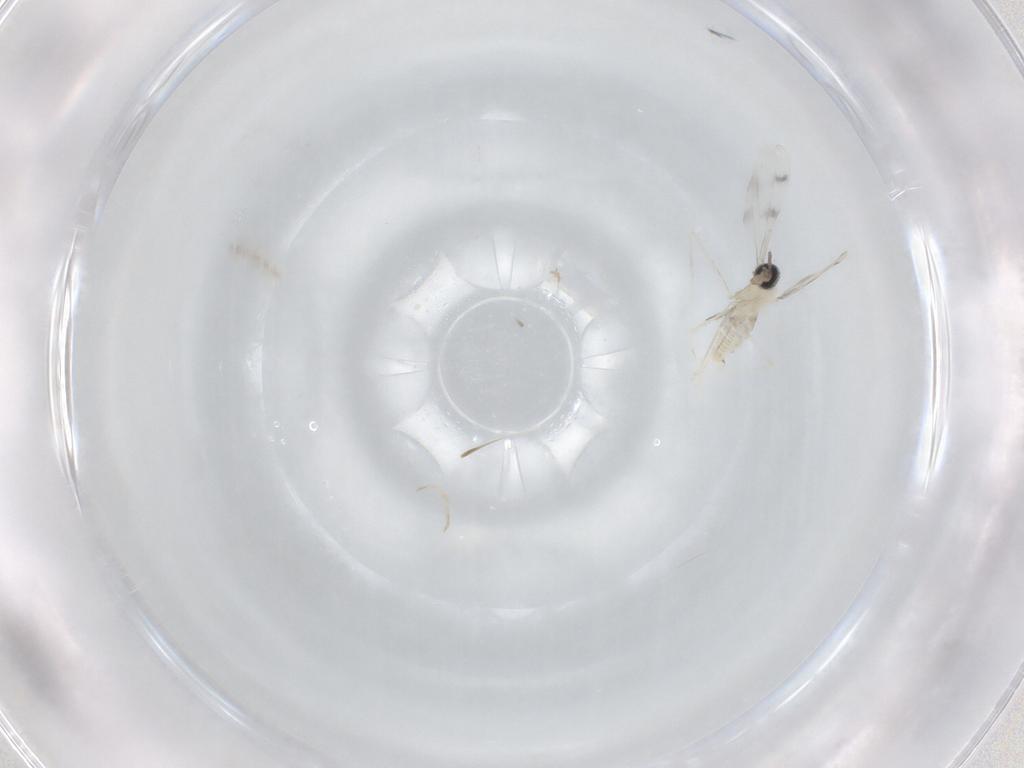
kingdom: Animalia
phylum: Arthropoda
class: Insecta
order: Diptera
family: Cecidomyiidae
